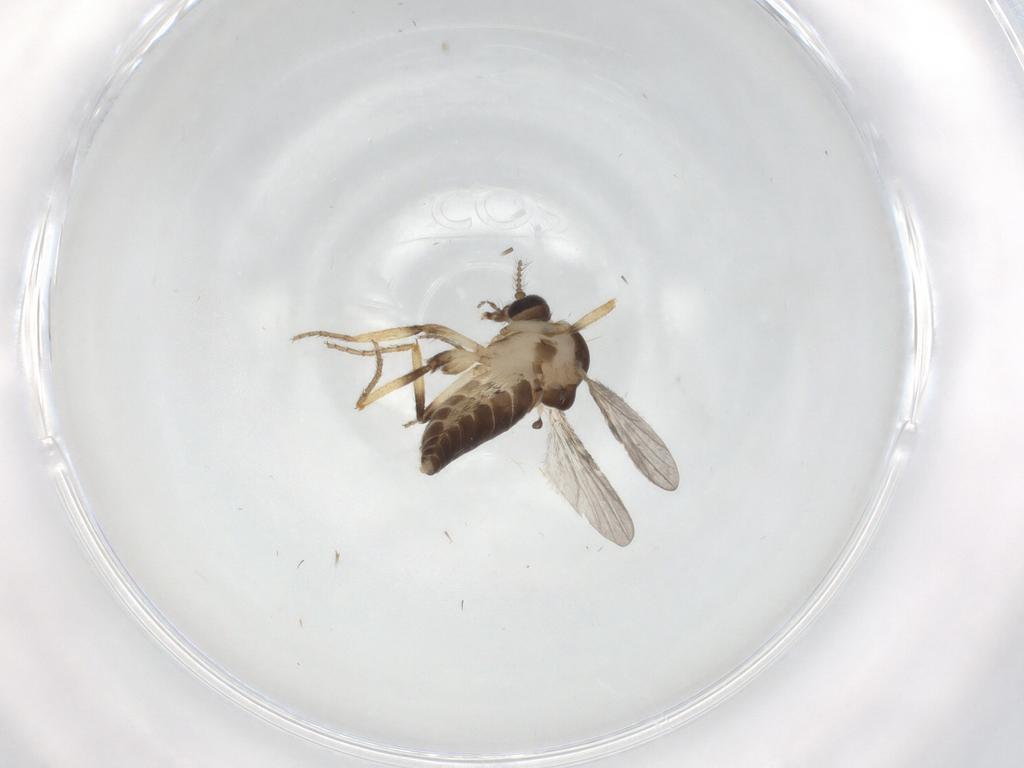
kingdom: Animalia
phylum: Arthropoda
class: Insecta
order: Diptera
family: Ceratopogonidae
